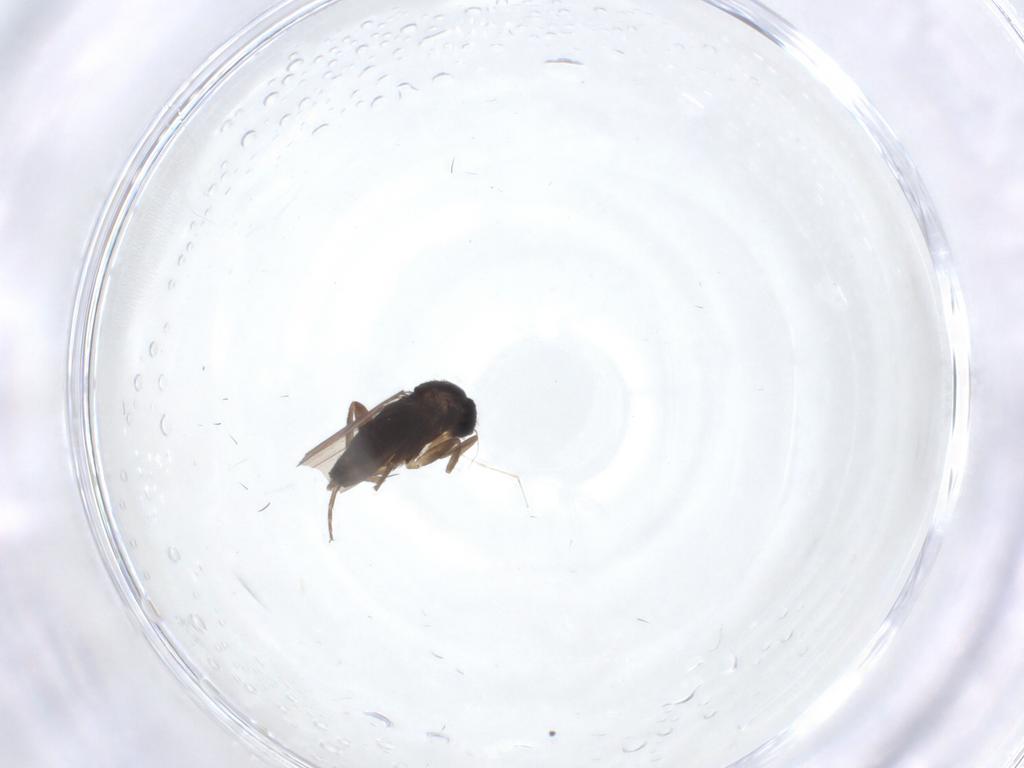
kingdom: Animalia
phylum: Arthropoda
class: Insecta
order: Diptera
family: Phoridae
